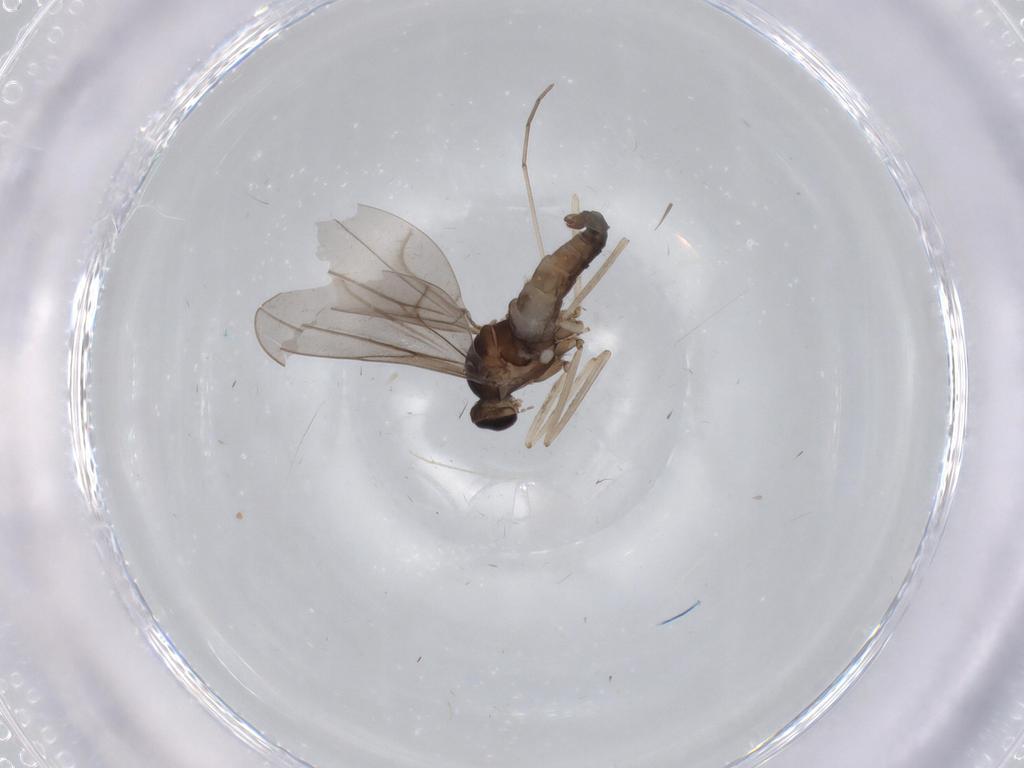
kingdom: Animalia
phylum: Arthropoda
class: Insecta
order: Diptera
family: Cecidomyiidae
